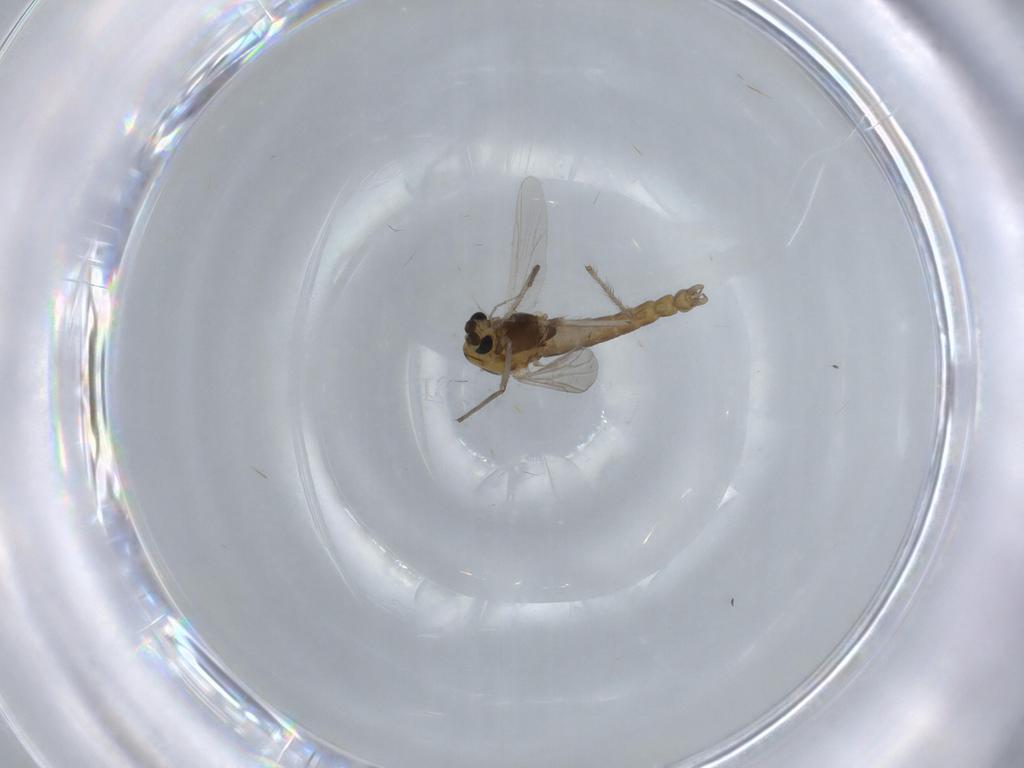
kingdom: Animalia
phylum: Arthropoda
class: Insecta
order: Diptera
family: Chironomidae
